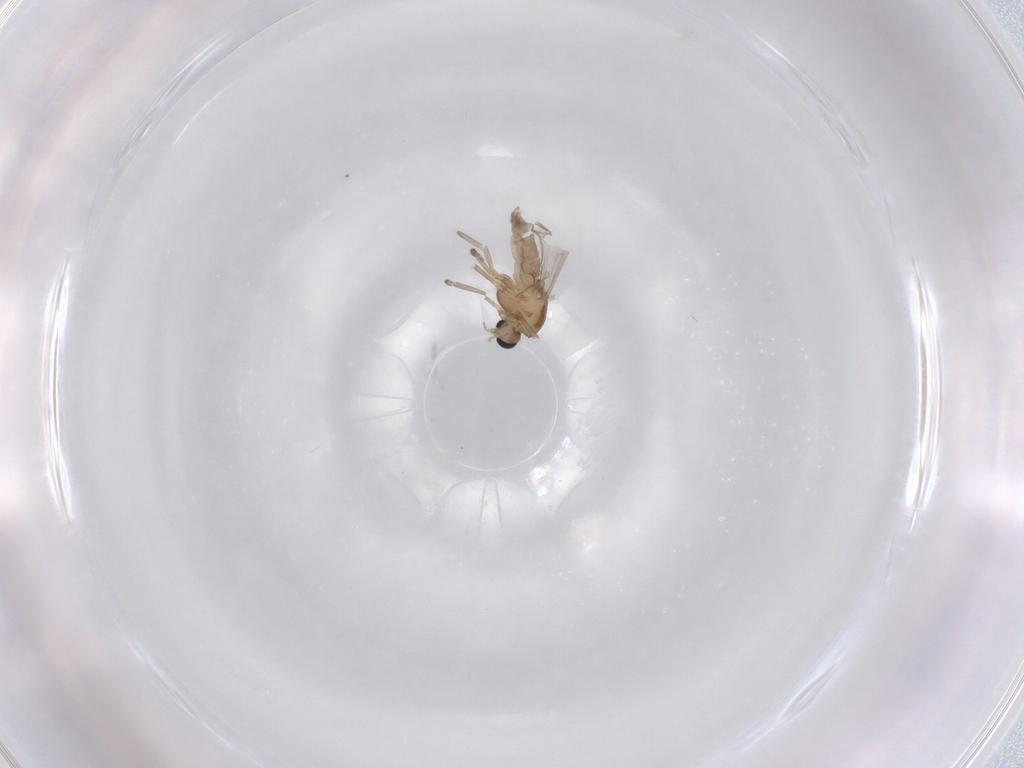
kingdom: Animalia
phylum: Arthropoda
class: Insecta
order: Diptera
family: Chironomidae
